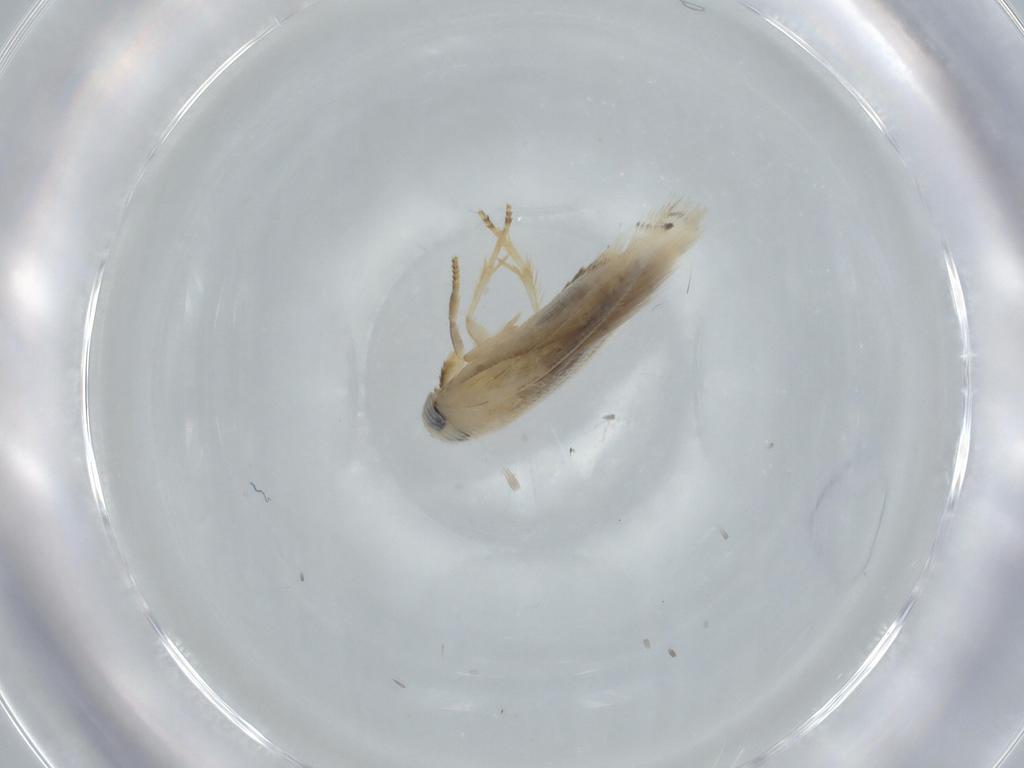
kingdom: Animalia
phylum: Arthropoda
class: Insecta
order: Lepidoptera
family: Opostegidae
